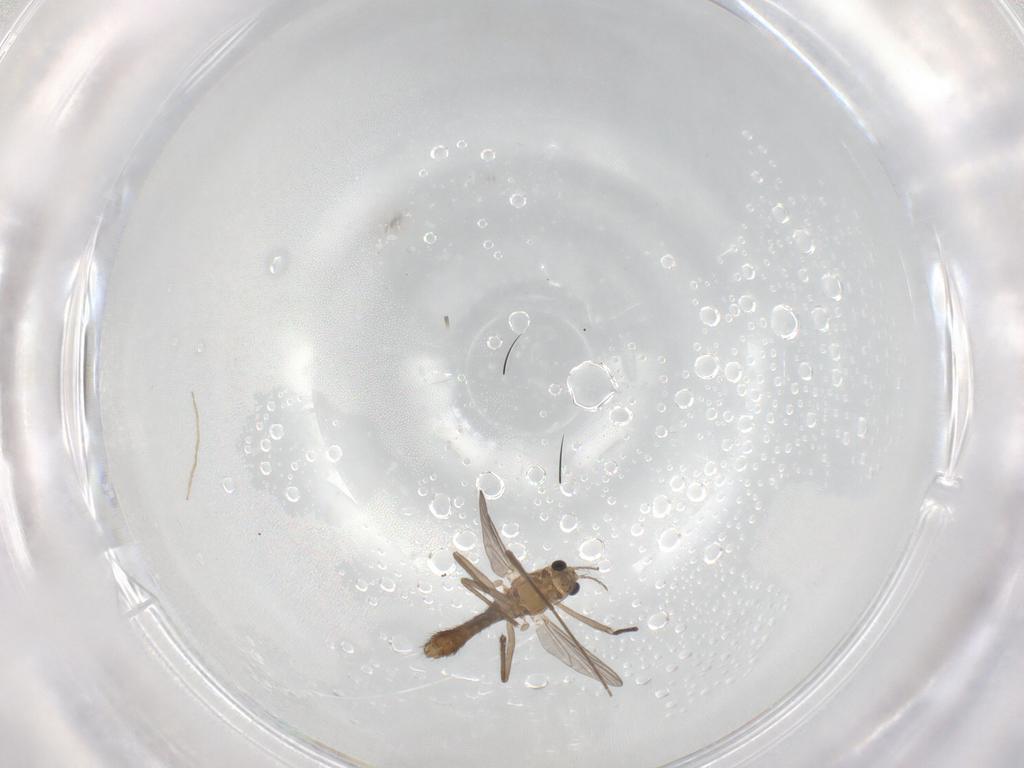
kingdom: Animalia
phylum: Arthropoda
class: Insecta
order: Diptera
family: Chironomidae
